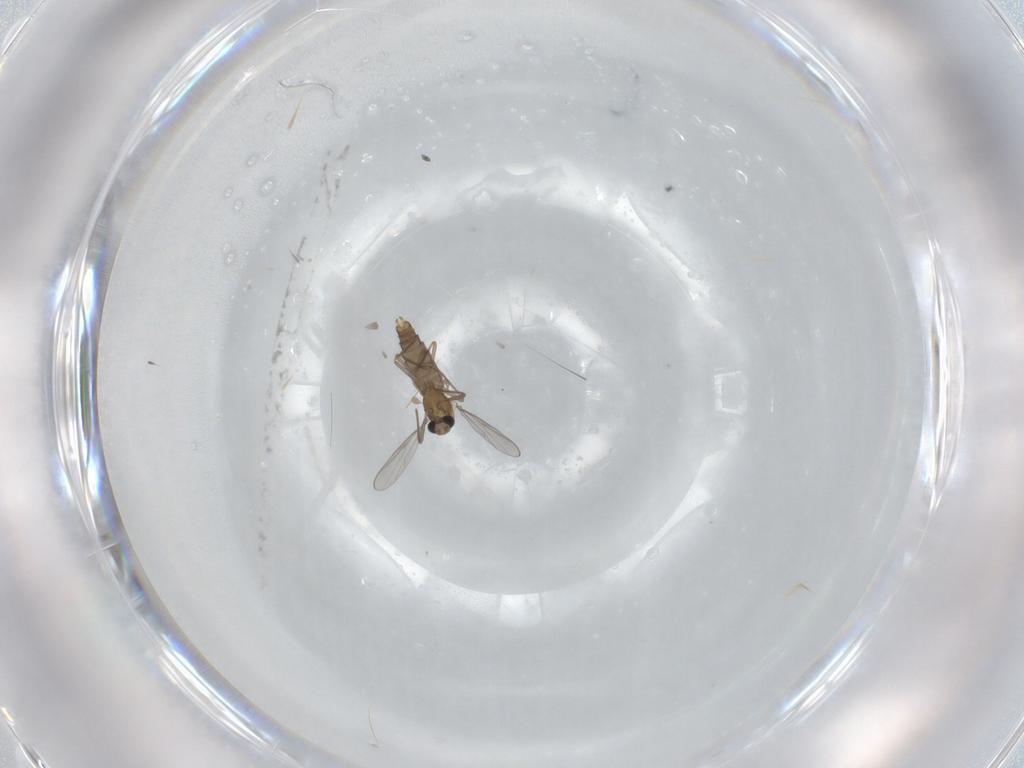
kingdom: Animalia
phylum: Arthropoda
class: Insecta
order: Diptera
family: Chironomidae
